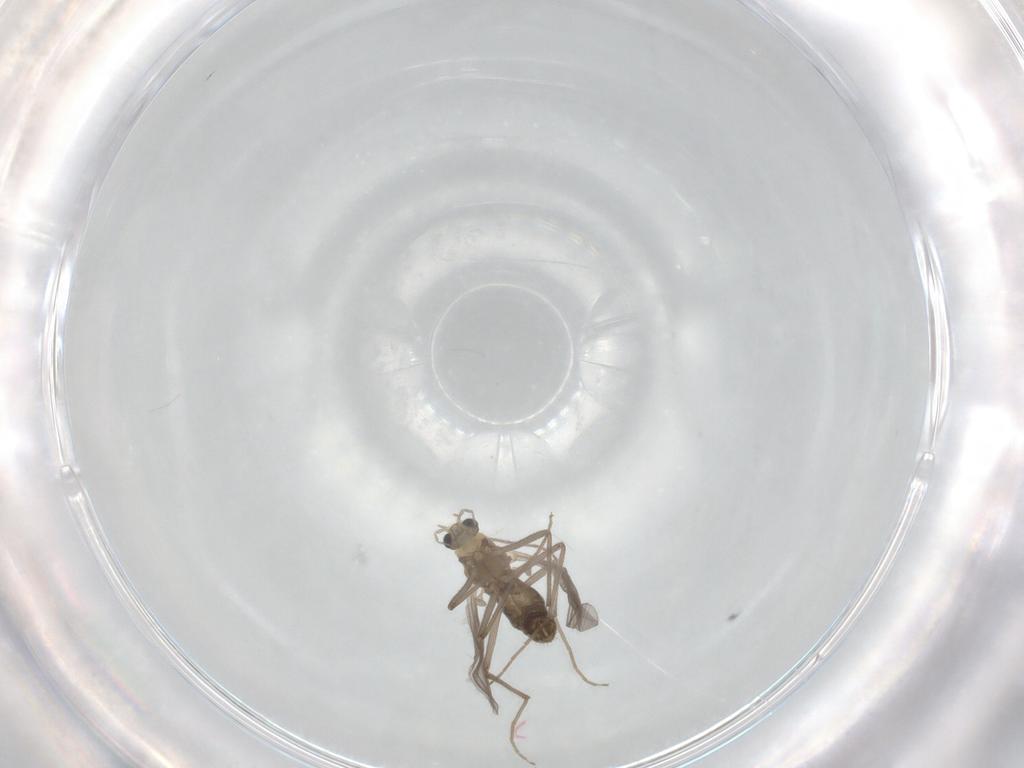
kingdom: Animalia
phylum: Arthropoda
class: Insecta
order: Diptera
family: Chironomidae
